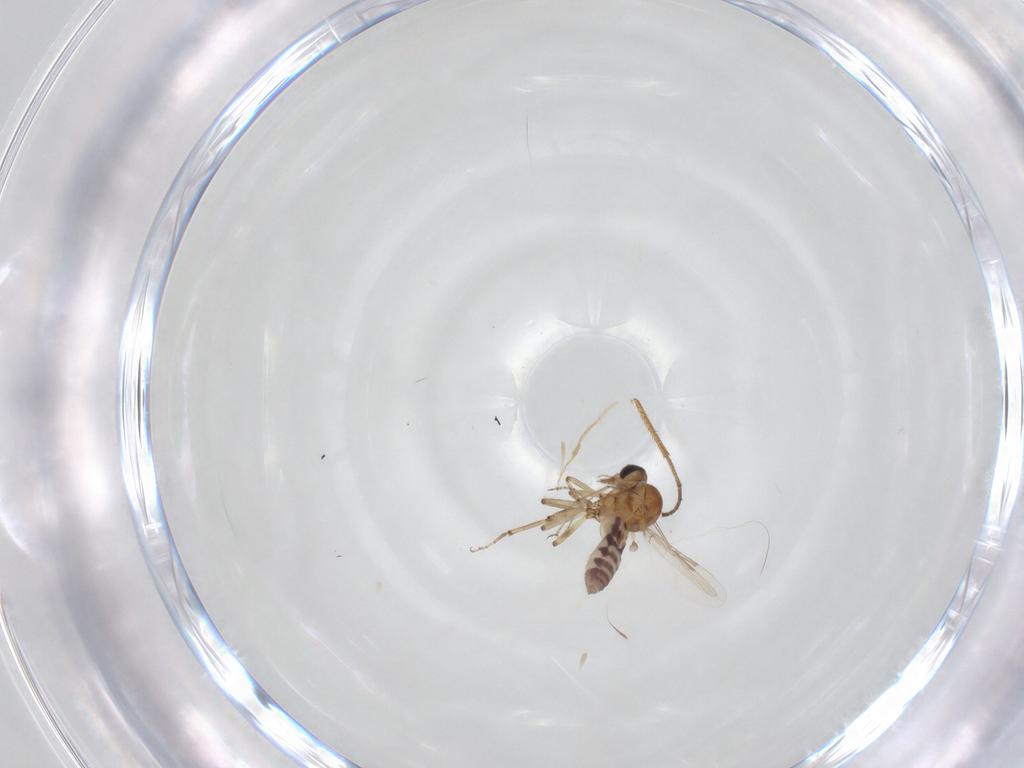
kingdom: Animalia
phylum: Arthropoda
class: Insecta
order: Diptera
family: Ceratopogonidae
